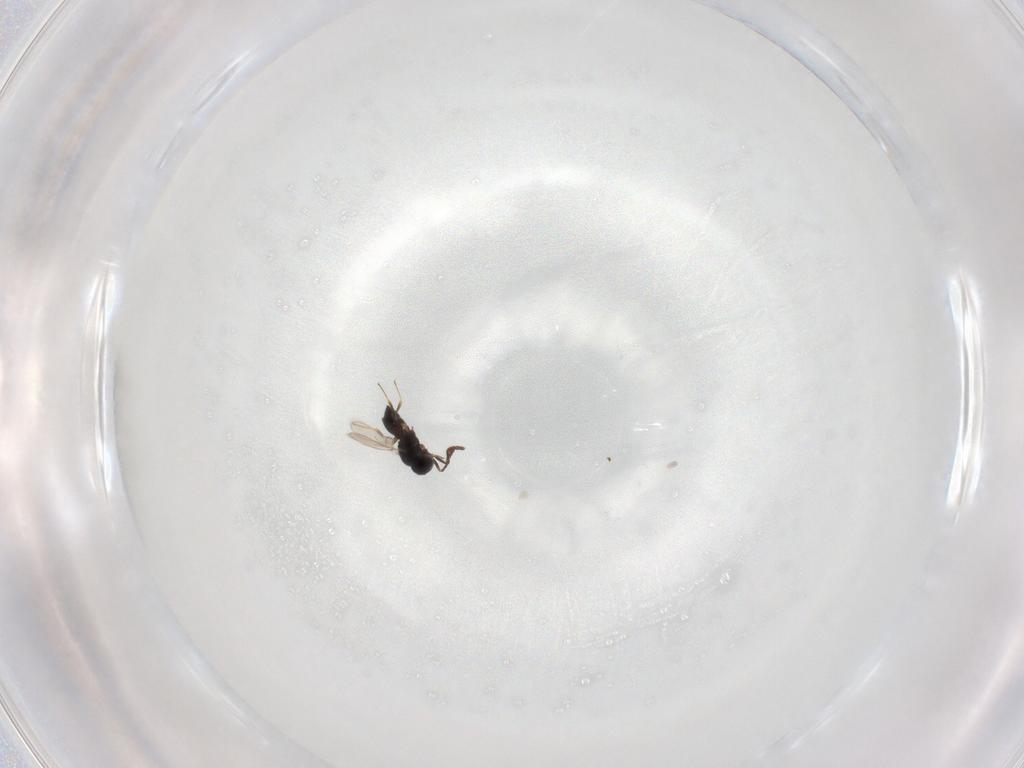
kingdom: Animalia
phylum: Arthropoda
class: Insecta
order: Hymenoptera
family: Scelionidae
